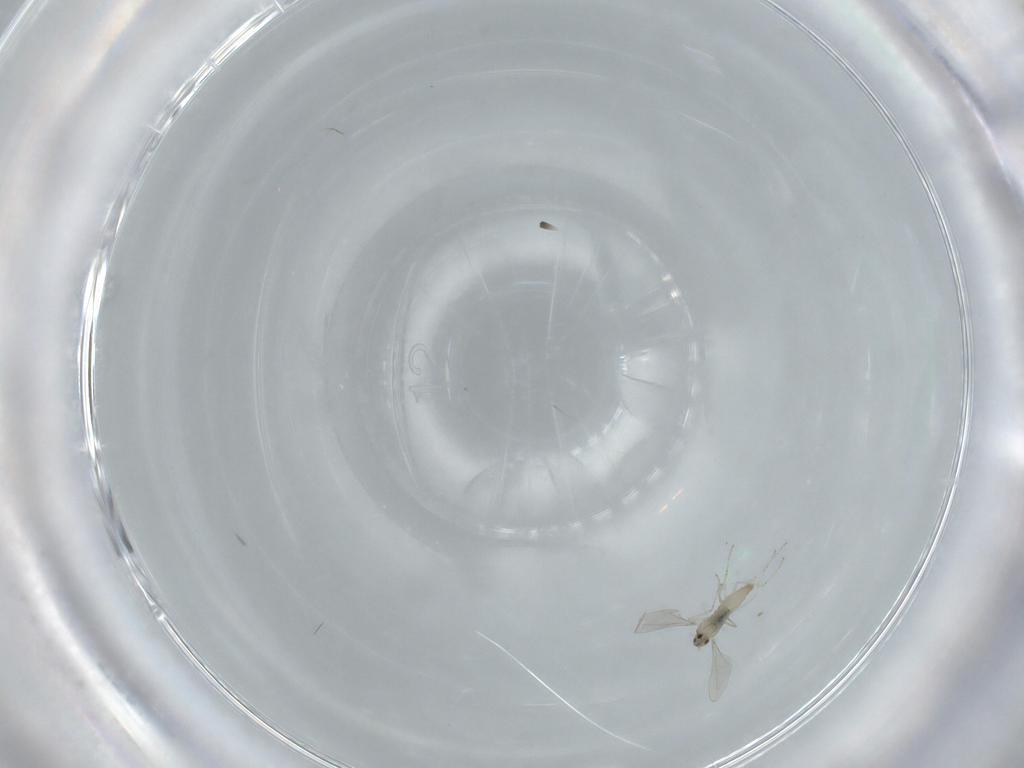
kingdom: Animalia
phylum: Arthropoda
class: Insecta
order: Diptera
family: Cecidomyiidae
